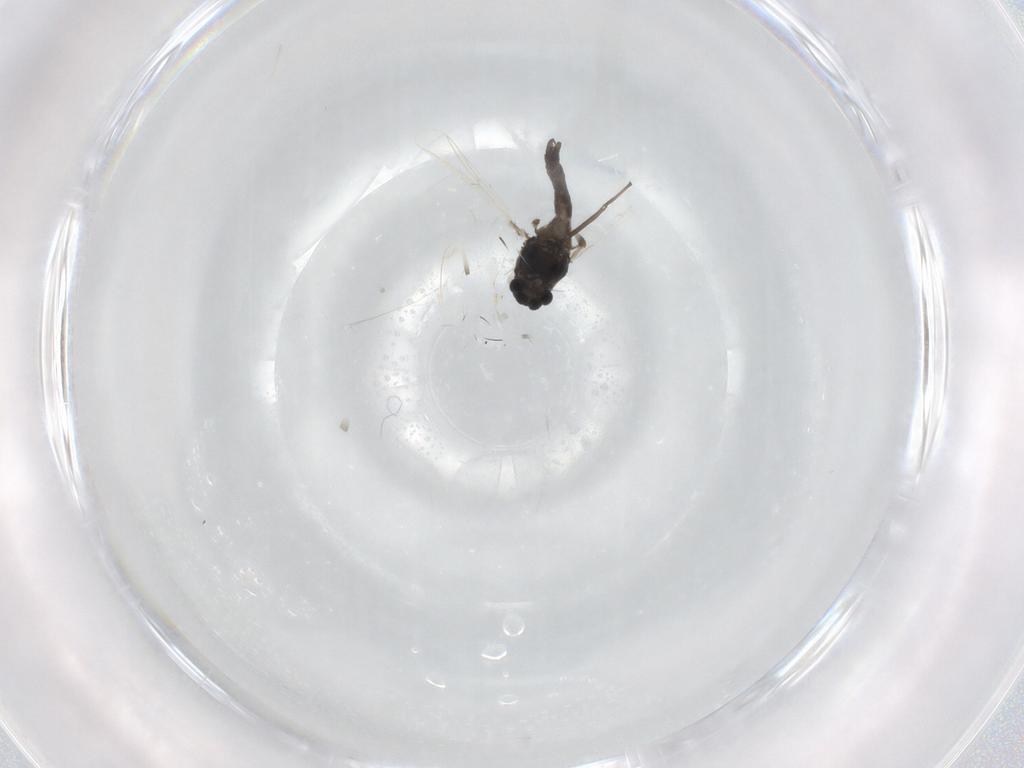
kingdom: Animalia
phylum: Arthropoda
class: Insecta
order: Diptera
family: Chironomidae
